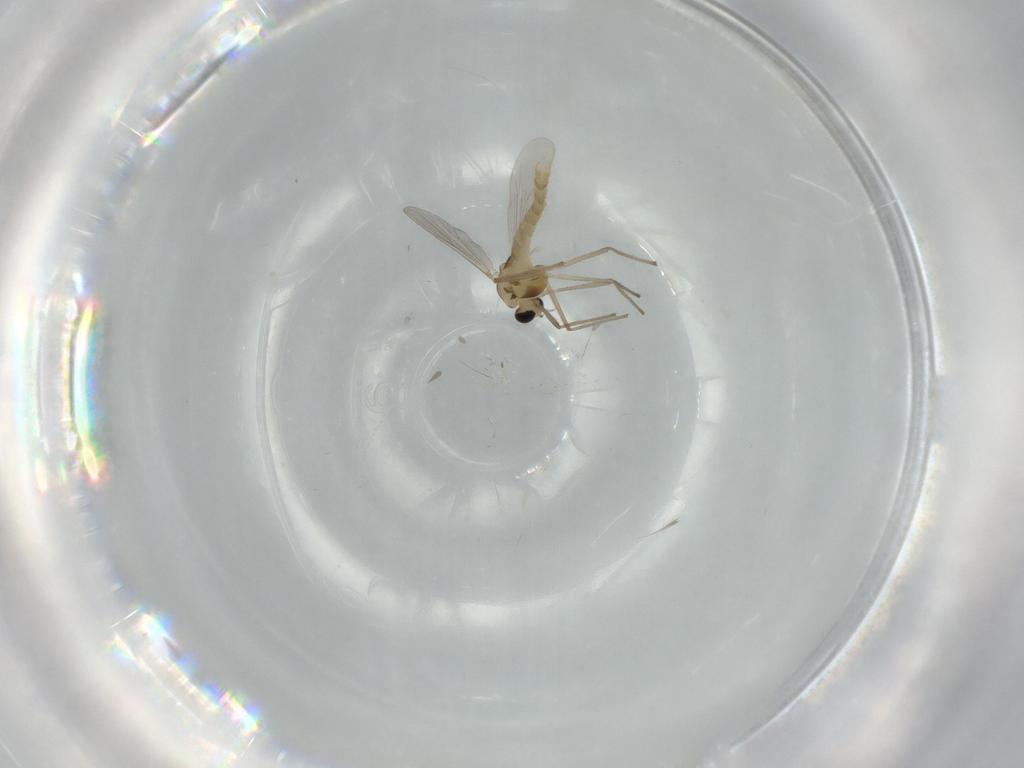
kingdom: Animalia
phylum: Arthropoda
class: Insecta
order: Diptera
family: Chironomidae
